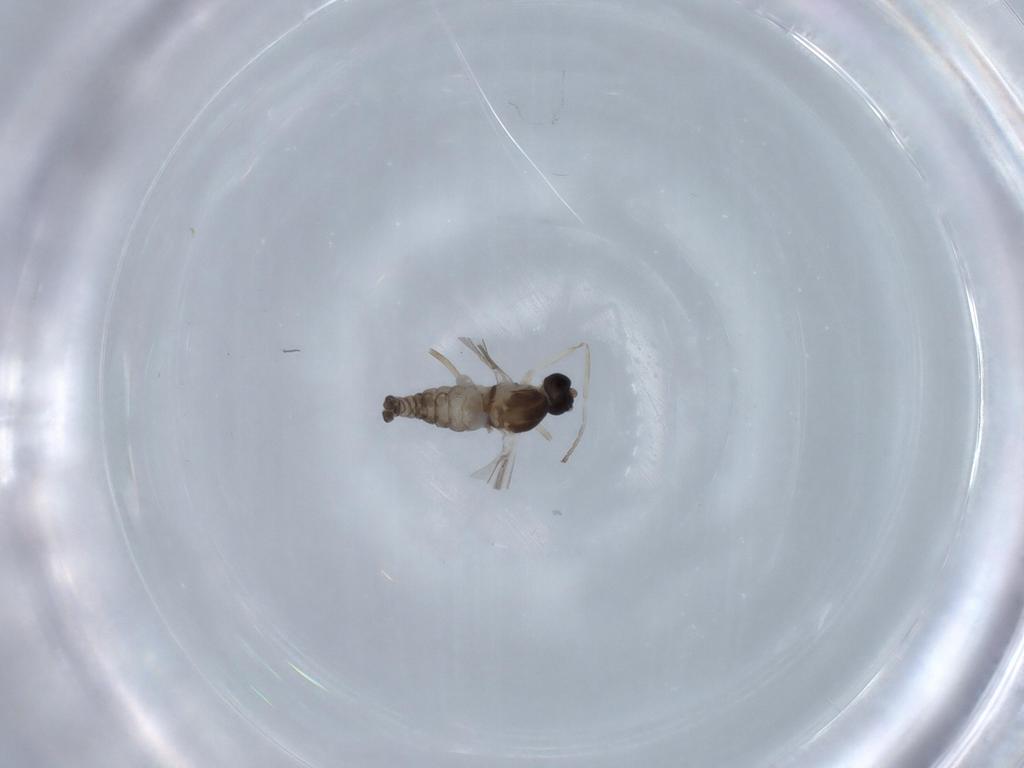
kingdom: Animalia
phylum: Arthropoda
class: Insecta
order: Diptera
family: Cecidomyiidae
